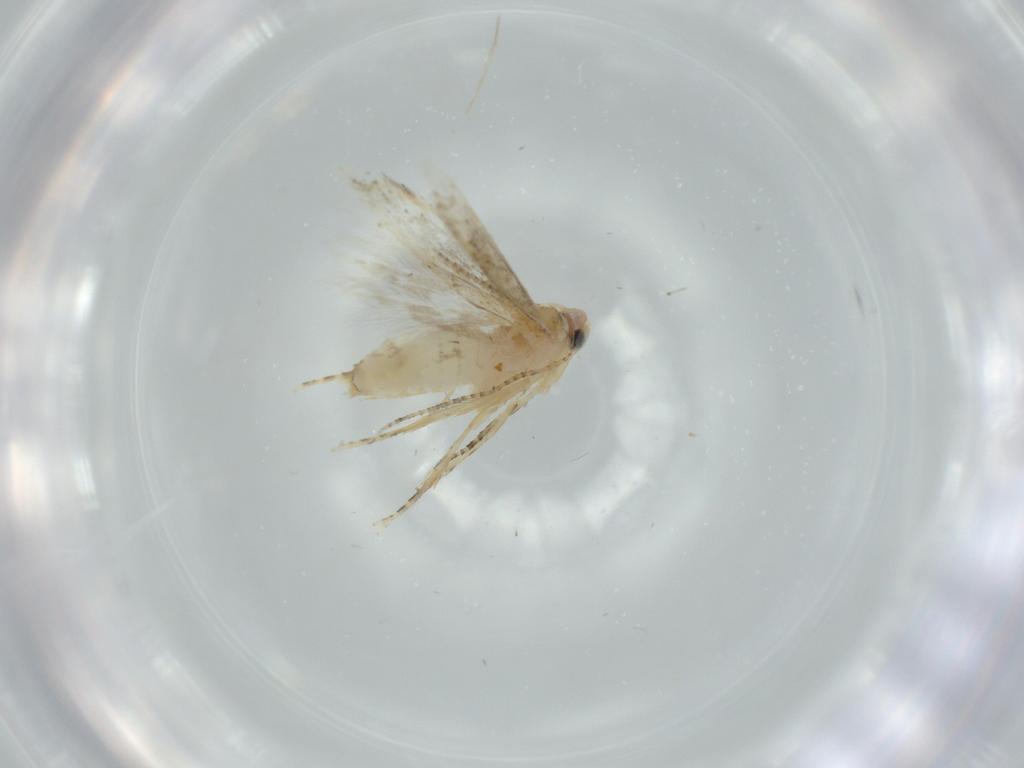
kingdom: Animalia
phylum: Arthropoda
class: Insecta
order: Lepidoptera
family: Bucculatricidae
